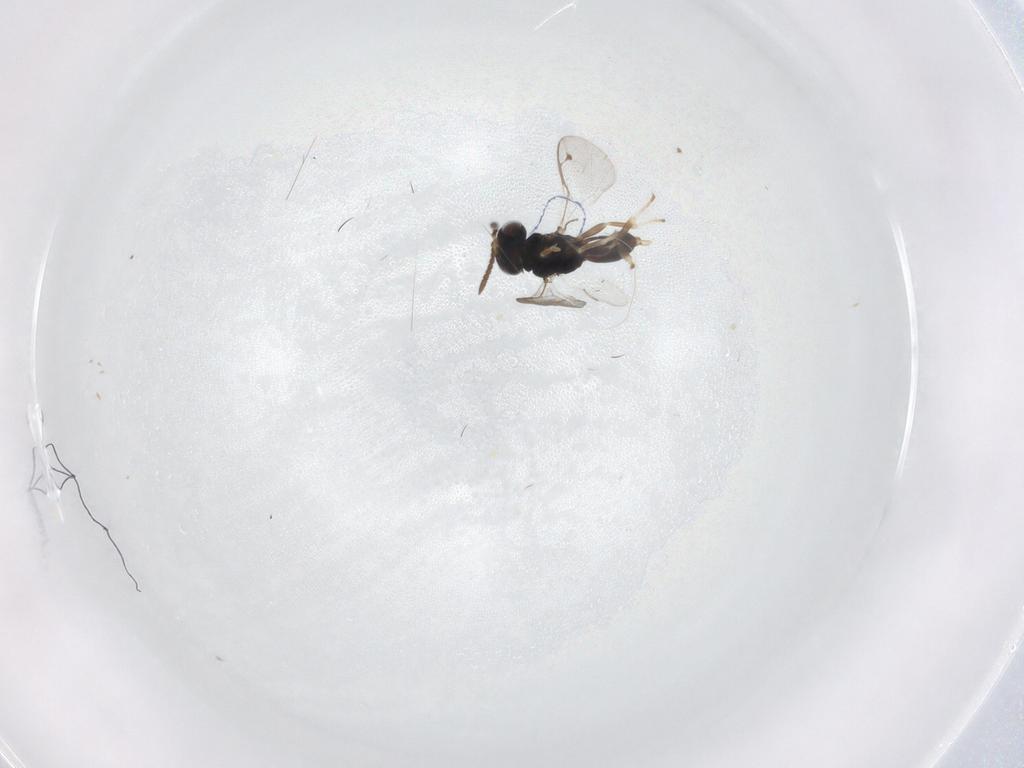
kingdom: Animalia
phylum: Arthropoda
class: Insecta
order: Hymenoptera
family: Pteromalidae
